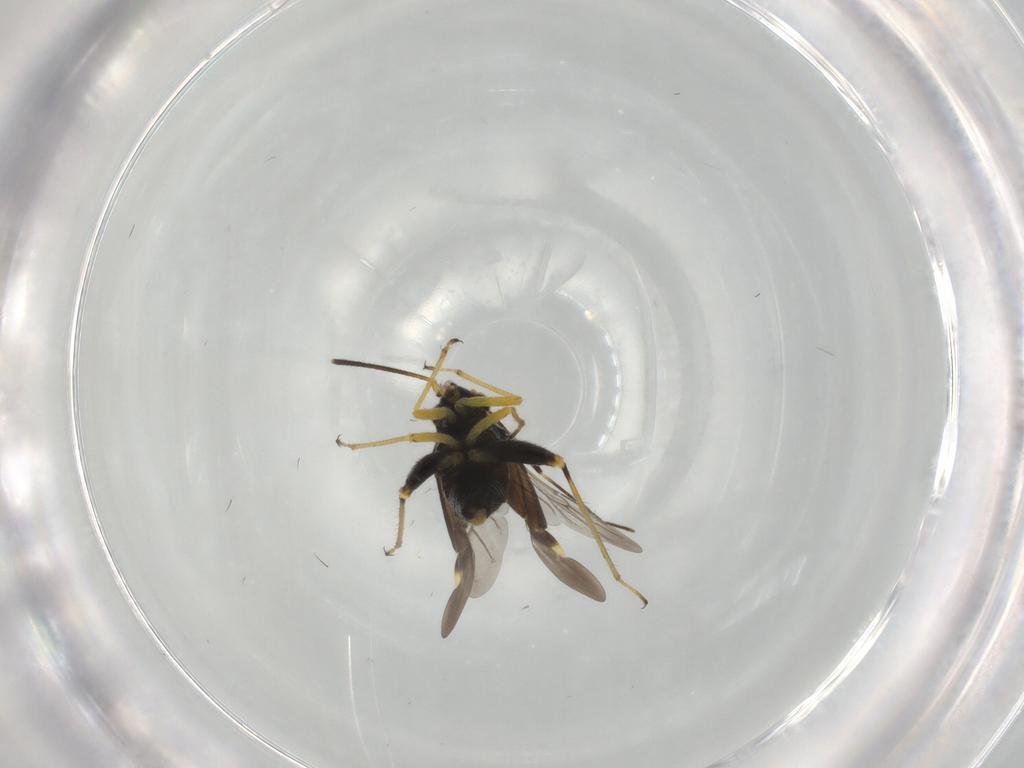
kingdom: Animalia
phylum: Arthropoda
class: Insecta
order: Hemiptera
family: Miridae
